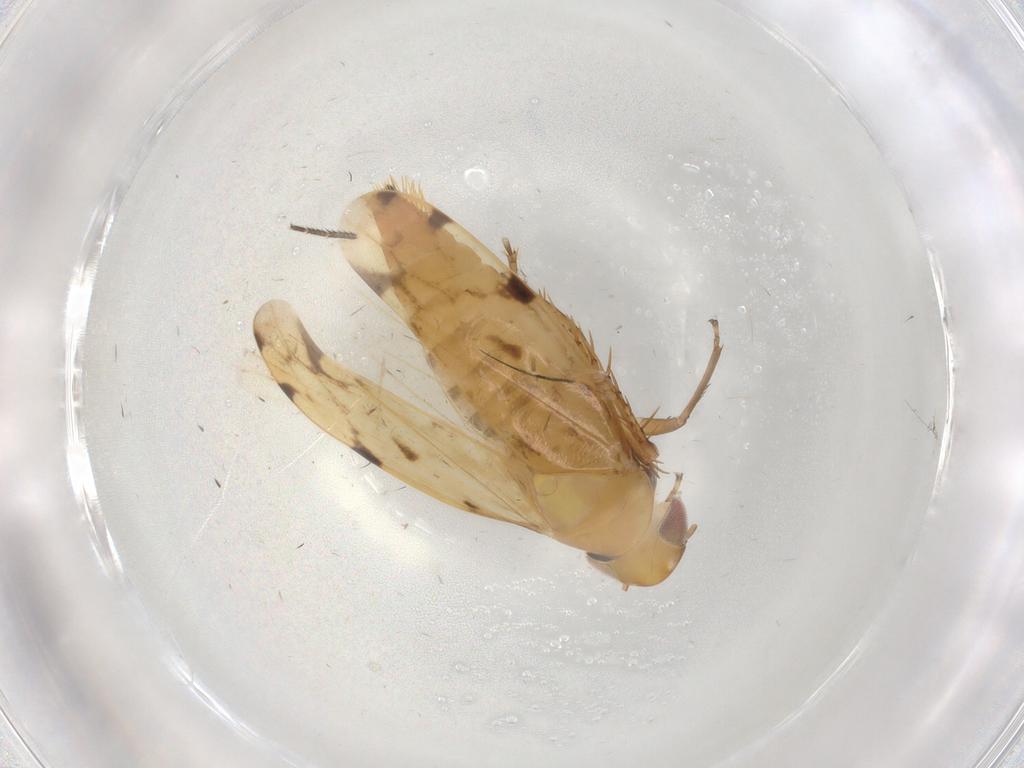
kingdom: Animalia
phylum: Arthropoda
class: Insecta
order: Hemiptera
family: Cicadellidae
